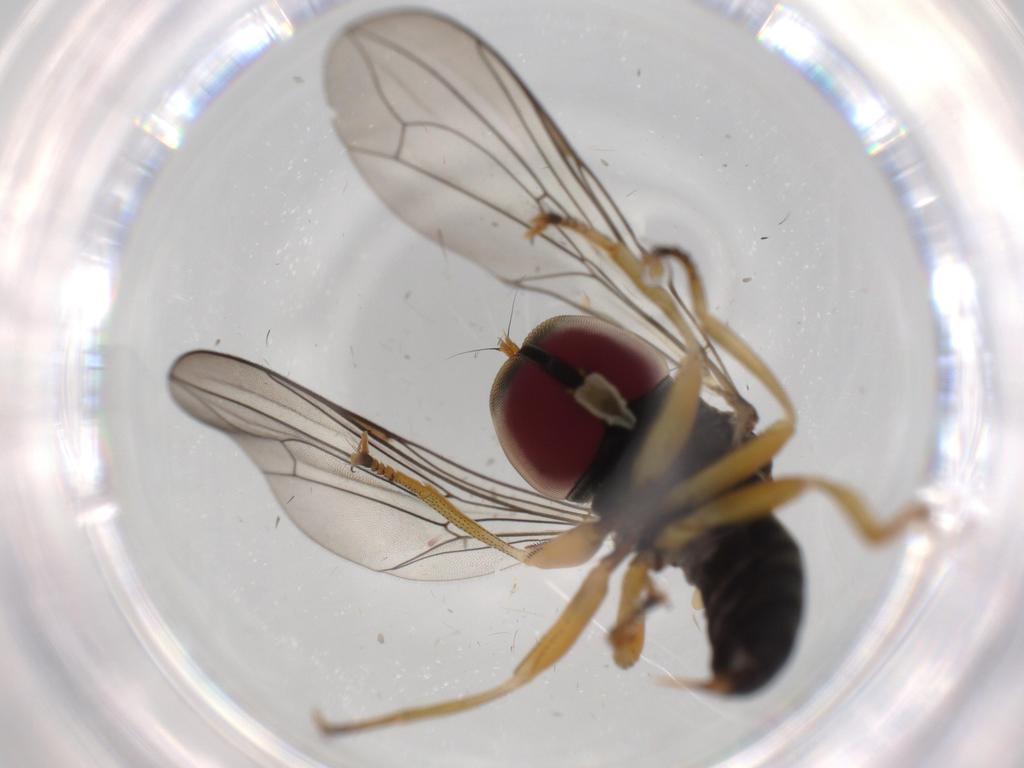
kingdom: Animalia
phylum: Arthropoda
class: Insecta
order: Diptera
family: Pipunculidae
